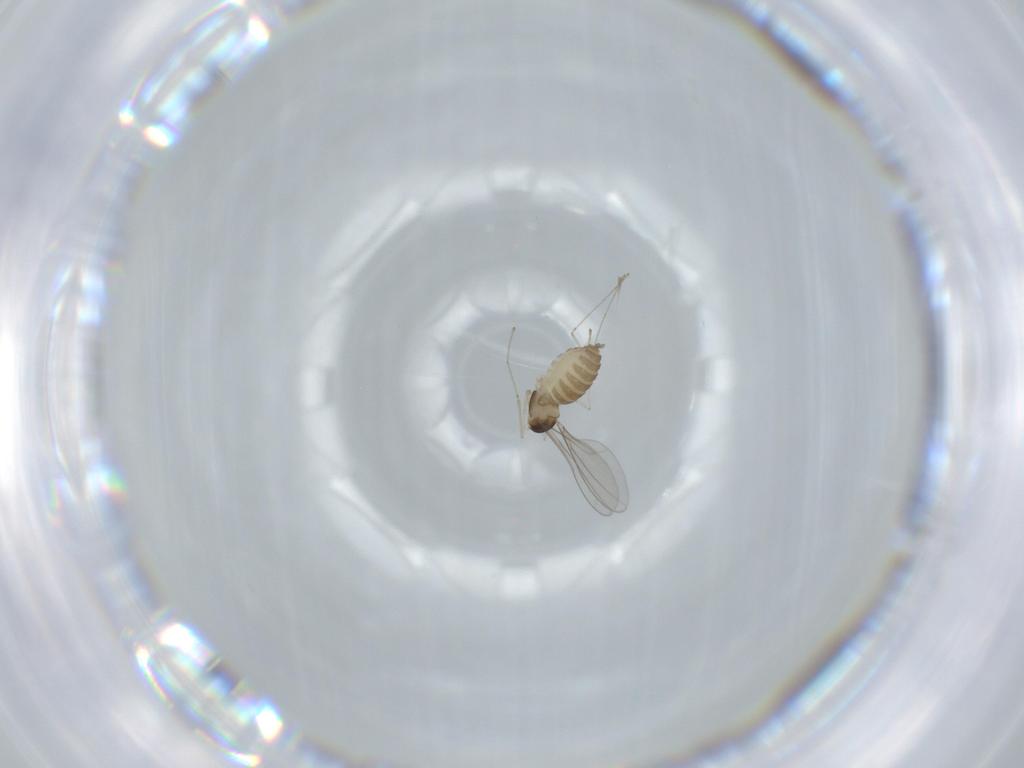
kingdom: Animalia
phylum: Arthropoda
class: Insecta
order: Diptera
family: Cecidomyiidae
